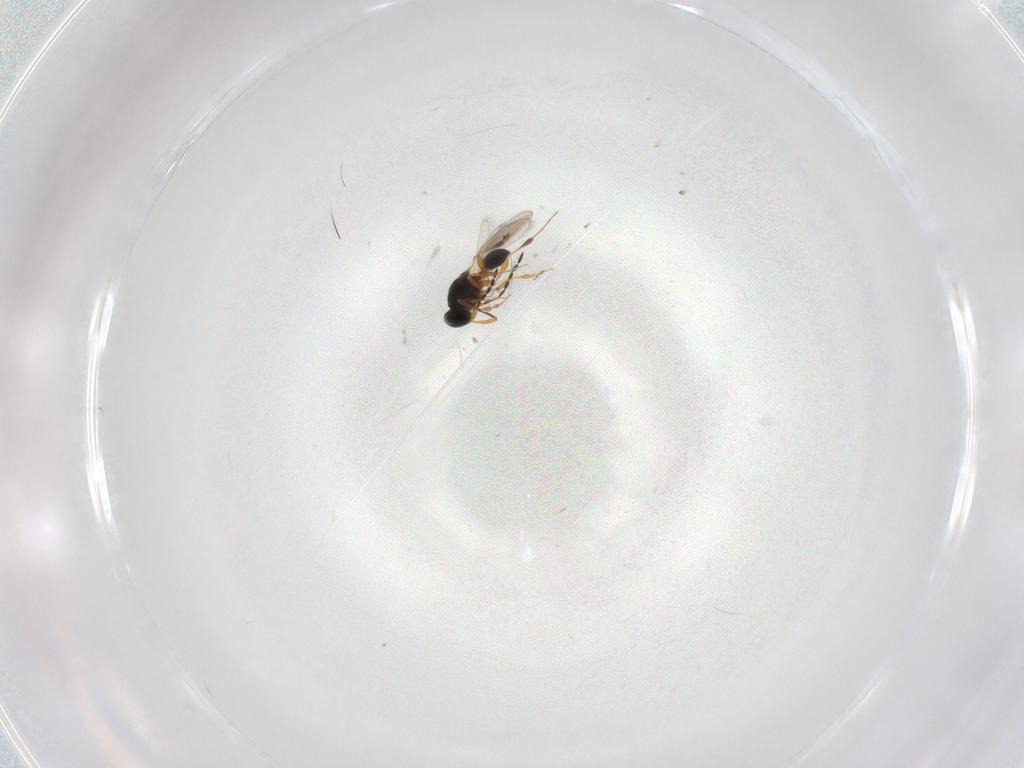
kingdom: Animalia
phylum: Arthropoda
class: Insecta
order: Hymenoptera
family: Platygastridae
